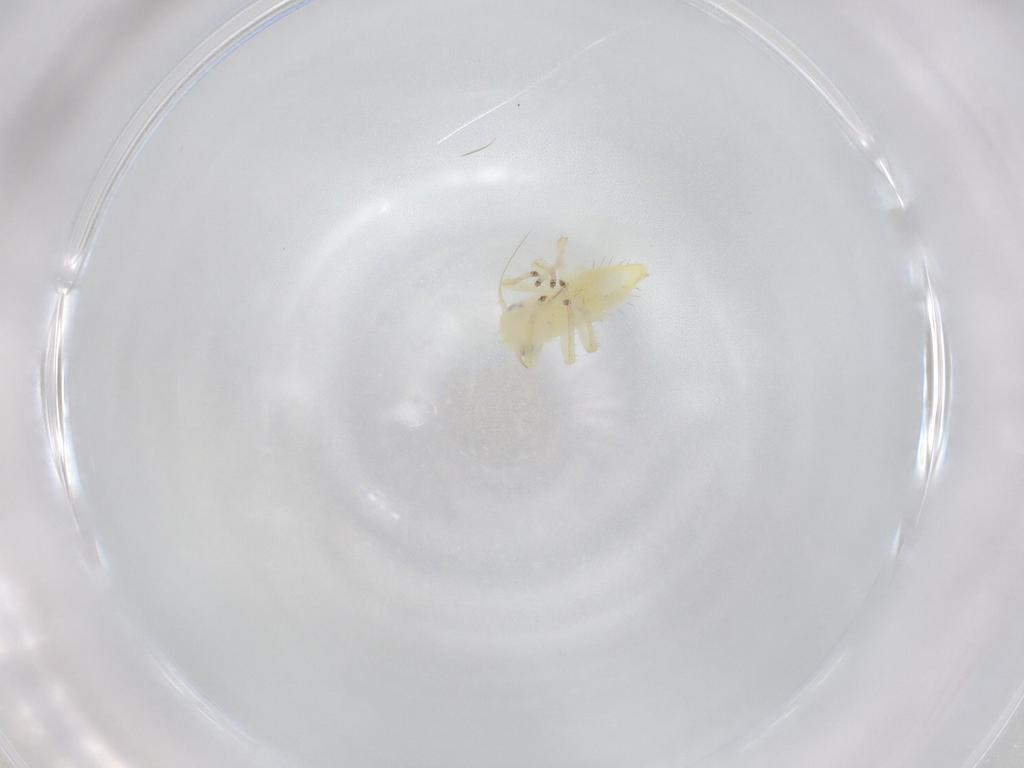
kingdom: Animalia
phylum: Arthropoda
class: Insecta
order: Hemiptera
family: Cicadellidae
